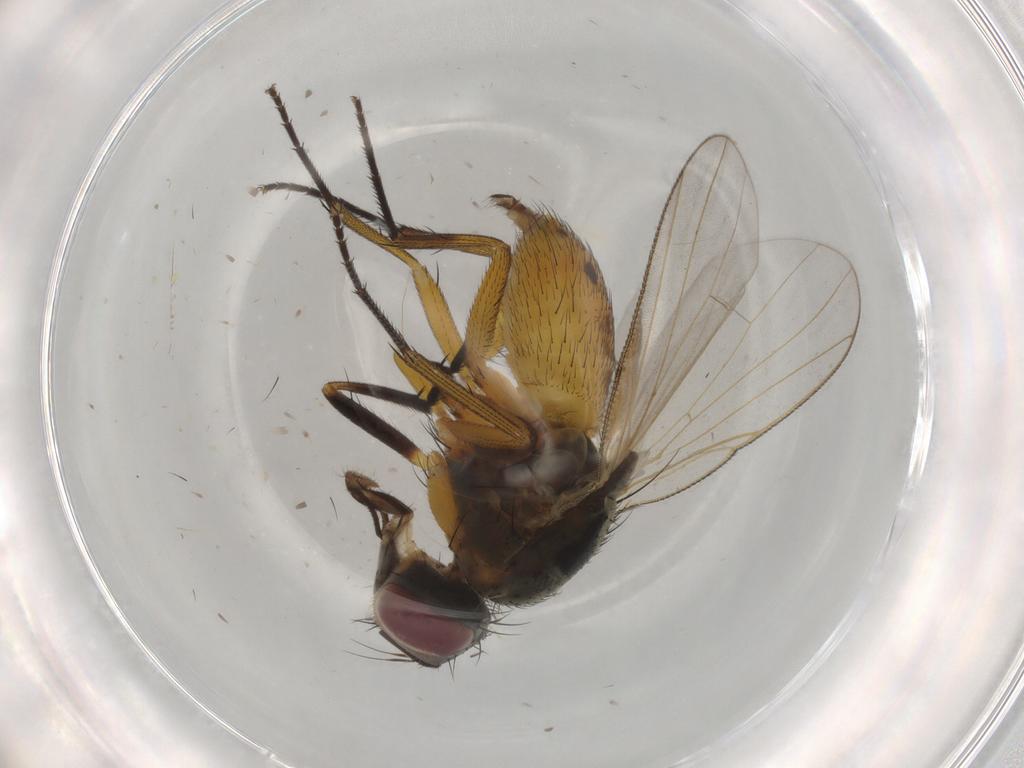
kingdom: Animalia
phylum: Arthropoda
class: Insecta
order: Diptera
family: Muscidae
